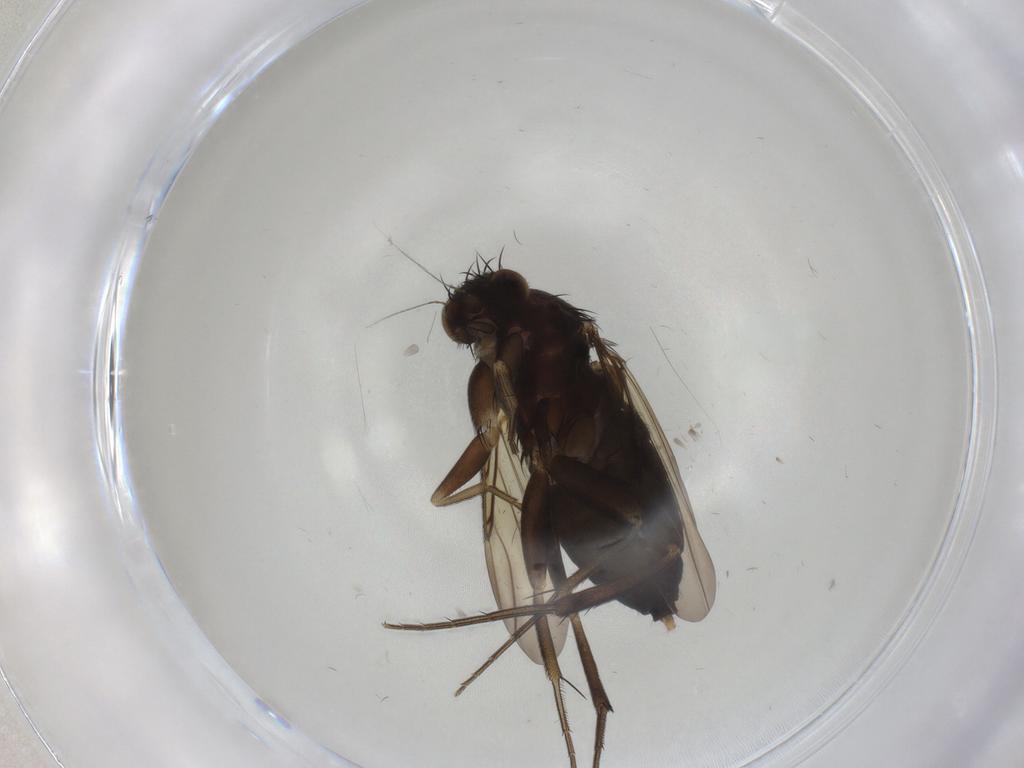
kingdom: Animalia
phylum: Arthropoda
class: Insecta
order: Diptera
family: Phoridae
